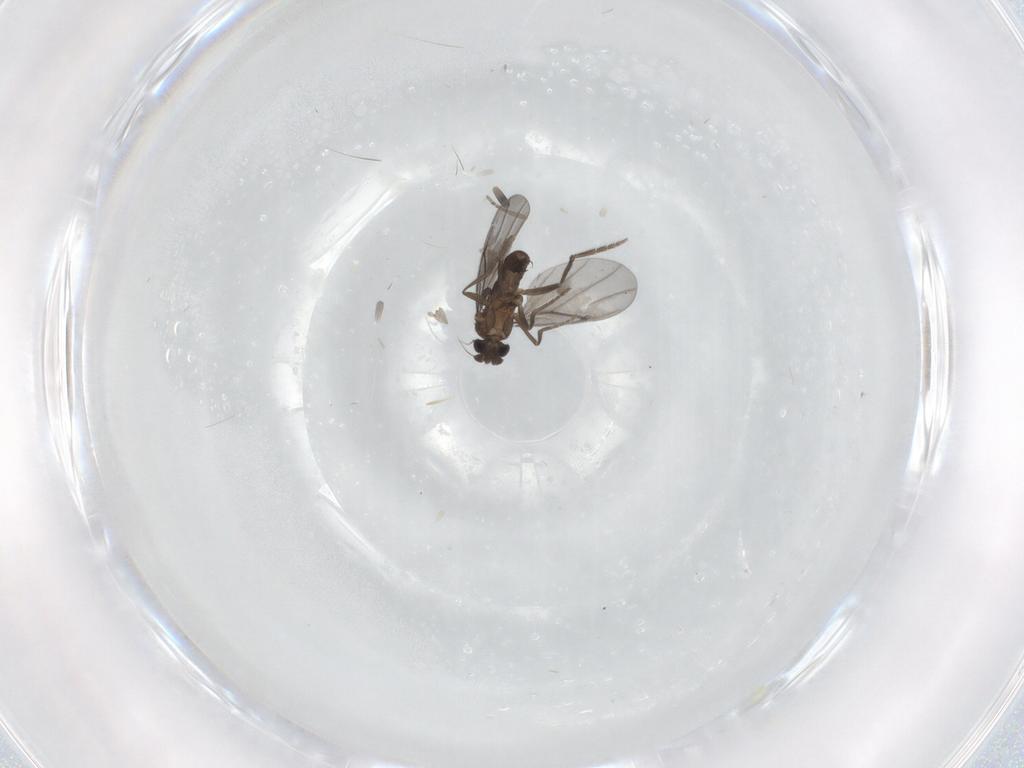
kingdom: Animalia
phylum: Arthropoda
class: Insecta
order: Diptera
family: Phoridae
